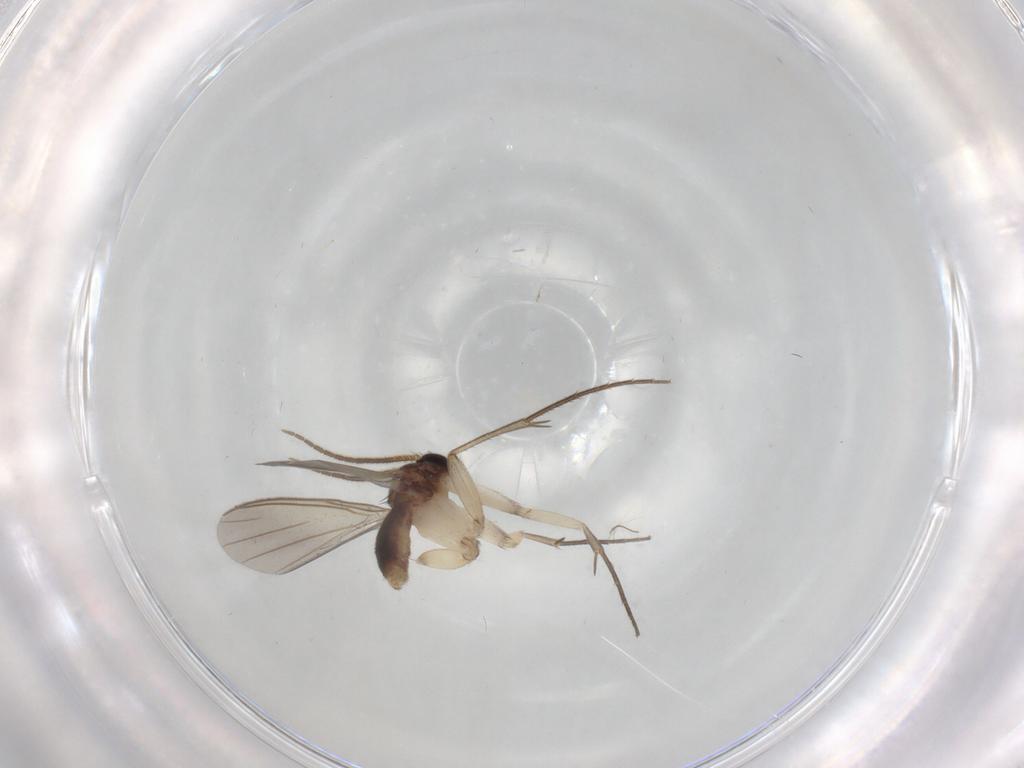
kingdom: Animalia
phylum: Arthropoda
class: Insecta
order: Diptera
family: Mycetophilidae
